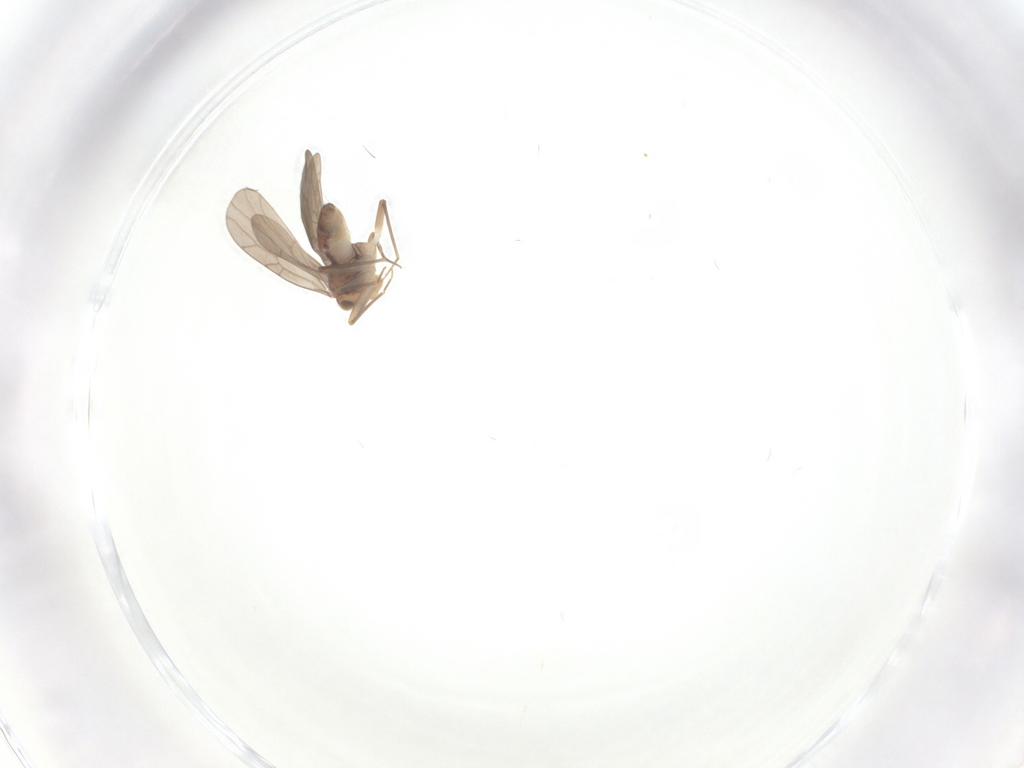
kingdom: Animalia
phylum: Arthropoda
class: Insecta
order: Psocodea
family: Lepidopsocidae
